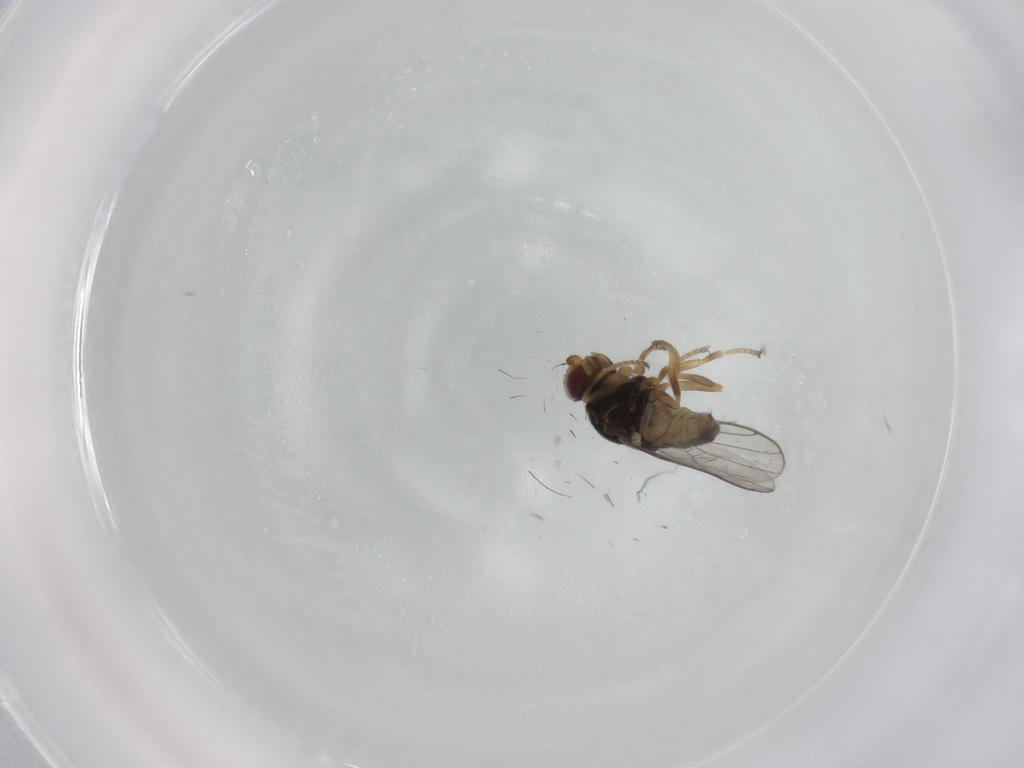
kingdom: Animalia
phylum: Arthropoda
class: Insecta
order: Diptera
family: Chloropidae
